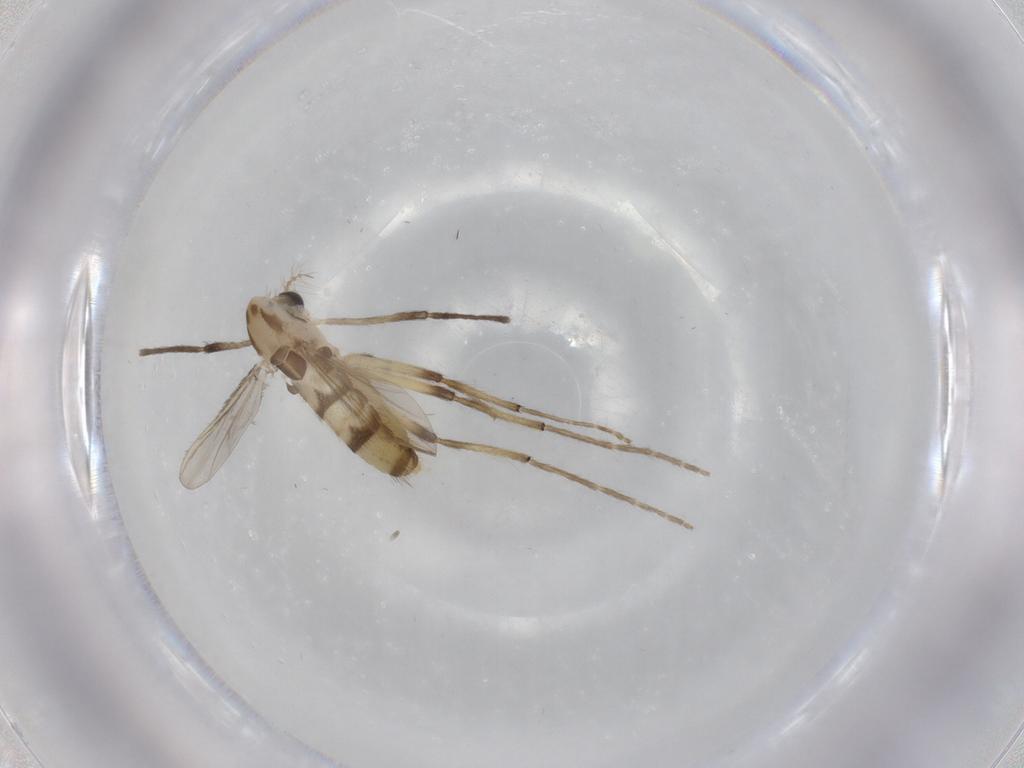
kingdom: Animalia
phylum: Arthropoda
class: Insecta
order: Diptera
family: Chironomidae
